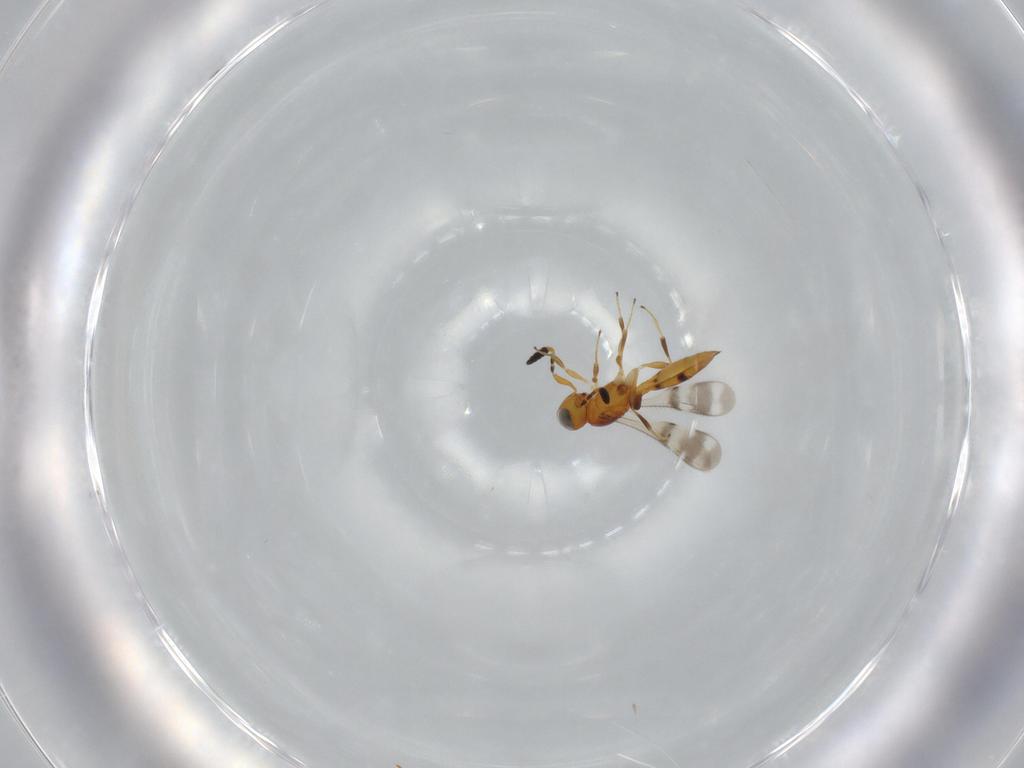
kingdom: Animalia
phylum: Arthropoda
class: Insecta
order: Hymenoptera
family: Scelionidae
